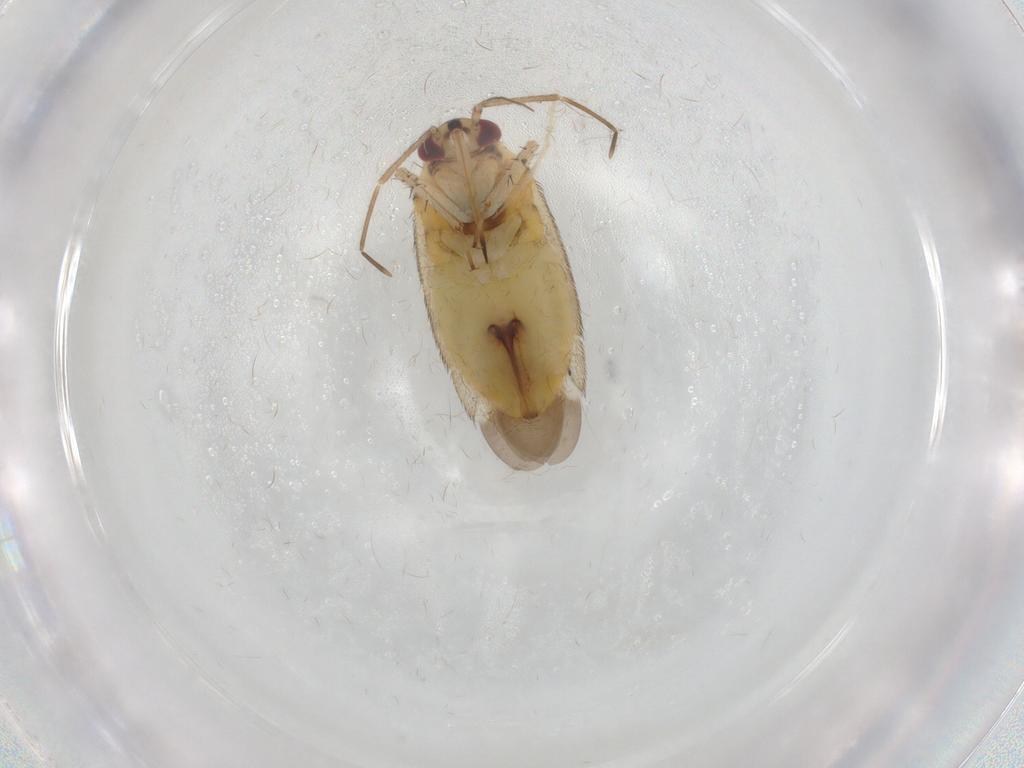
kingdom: Animalia
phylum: Arthropoda
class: Insecta
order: Hemiptera
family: Miridae
